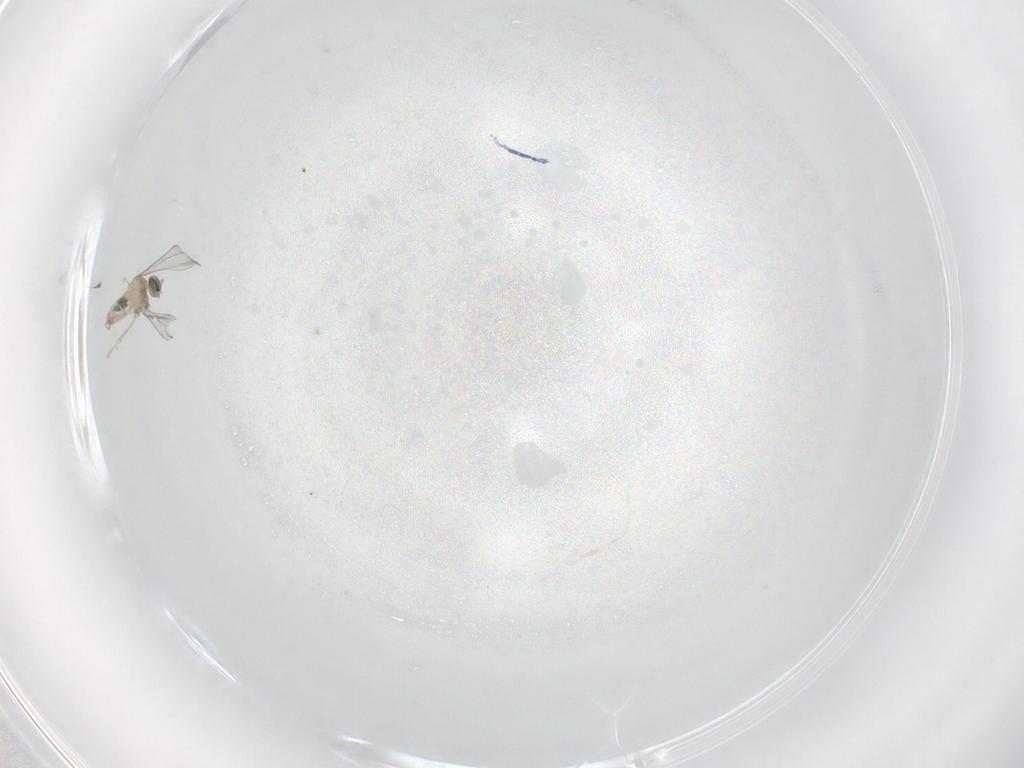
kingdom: Animalia
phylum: Arthropoda
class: Insecta
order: Diptera
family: Cecidomyiidae
